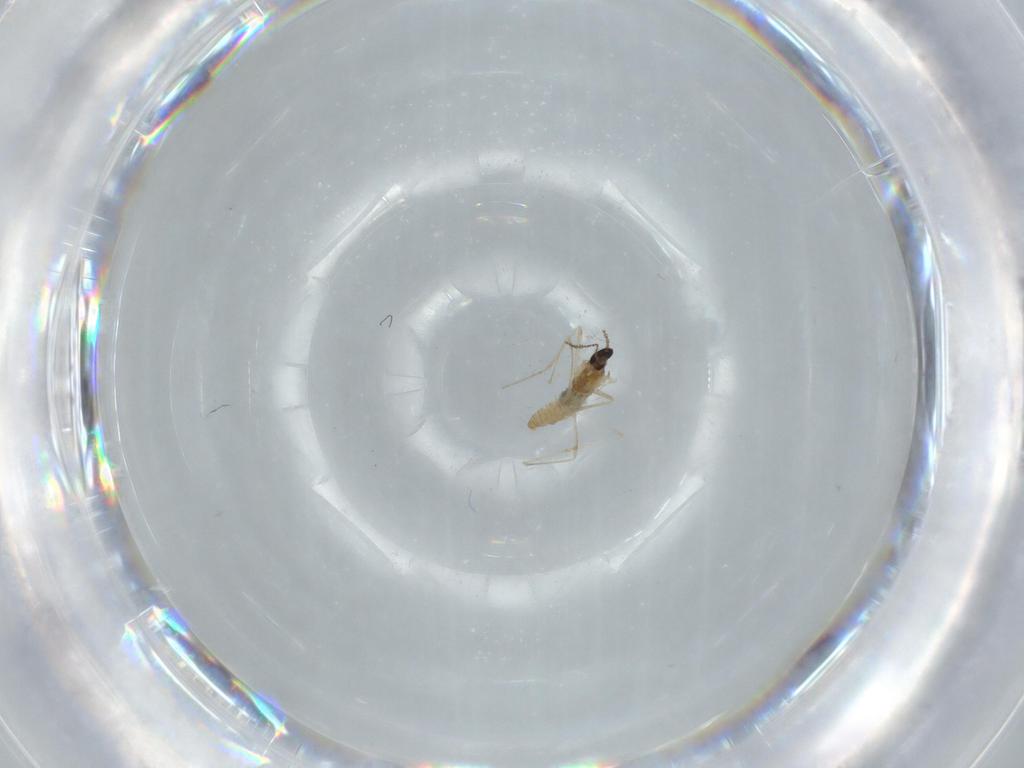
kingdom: Animalia
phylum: Arthropoda
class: Insecta
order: Diptera
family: Cecidomyiidae
